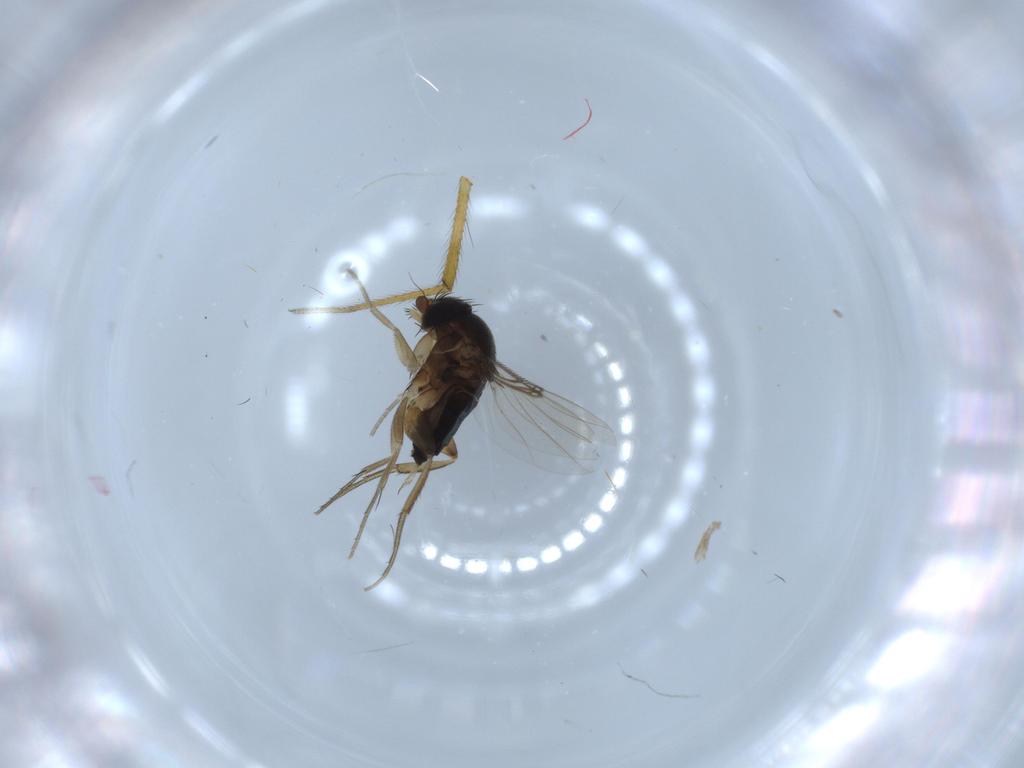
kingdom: Animalia
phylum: Arthropoda
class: Insecta
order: Diptera
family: Phoridae
